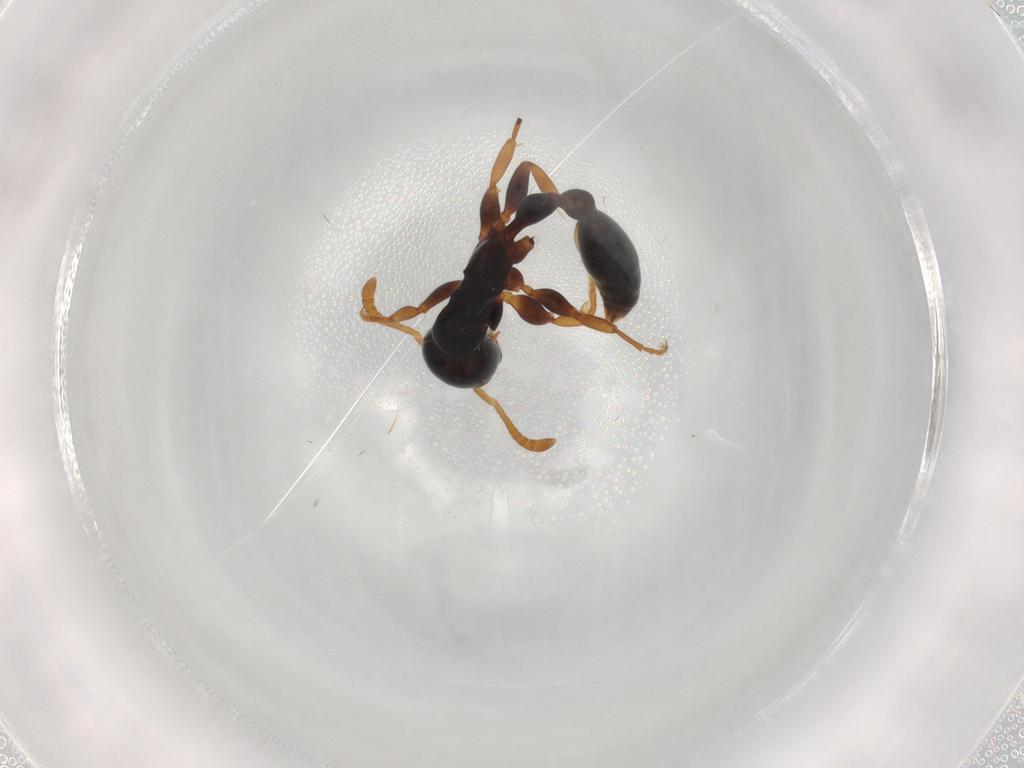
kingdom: Animalia
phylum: Arthropoda
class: Insecta
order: Hymenoptera
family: Formicidae
